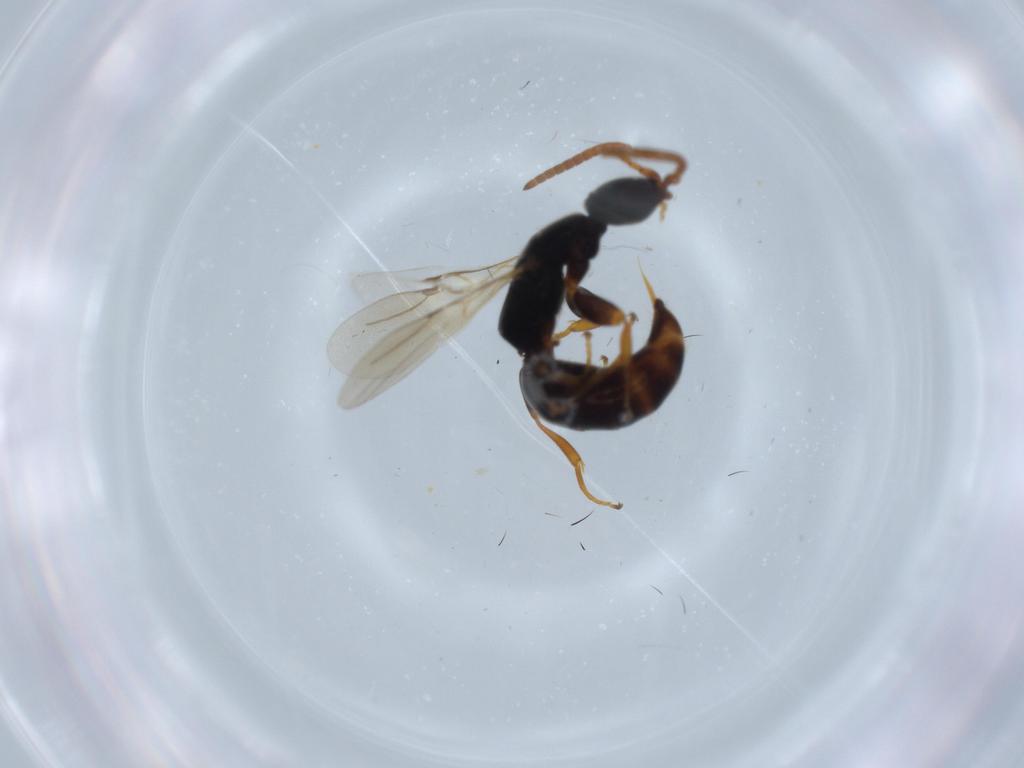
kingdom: Animalia
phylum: Arthropoda
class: Insecta
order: Hymenoptera
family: Bethylidae
